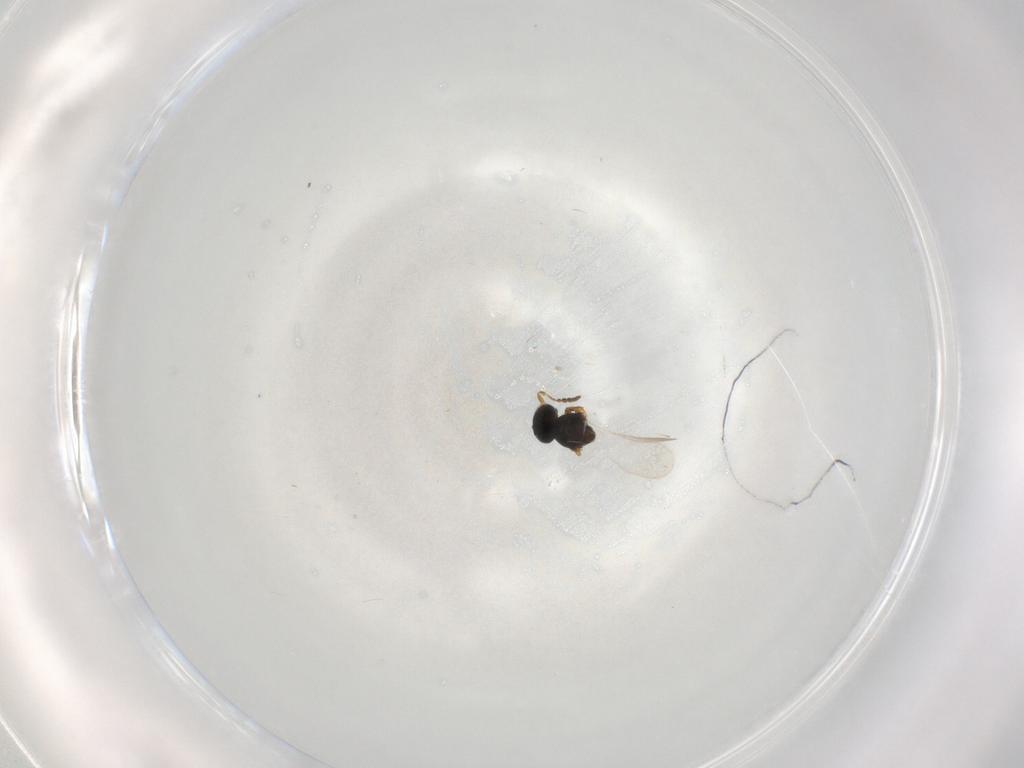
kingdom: Animalia
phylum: Arthropoda
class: Insecta
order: Hymenoptera
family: Platygastridae
